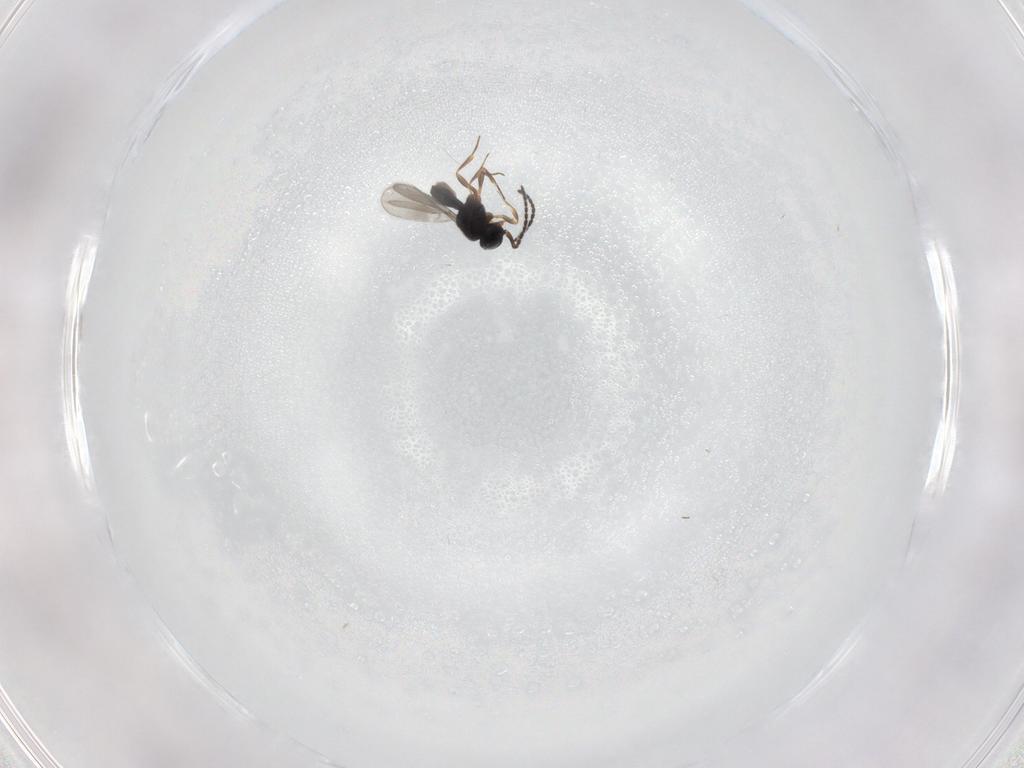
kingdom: Animalia
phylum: Arthropoda
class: Insecta
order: Hymenoptera
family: Scelionidae
